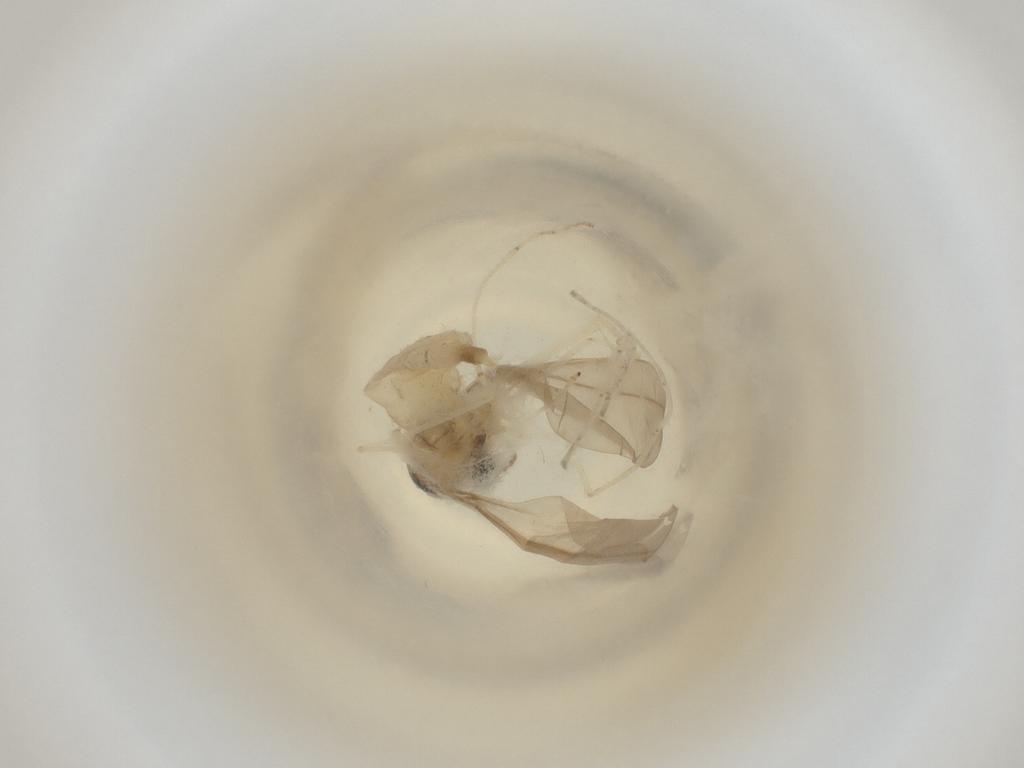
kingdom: Animalia
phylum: Arthropoda
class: Insecta
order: Diptera
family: Cecidomyiidae
